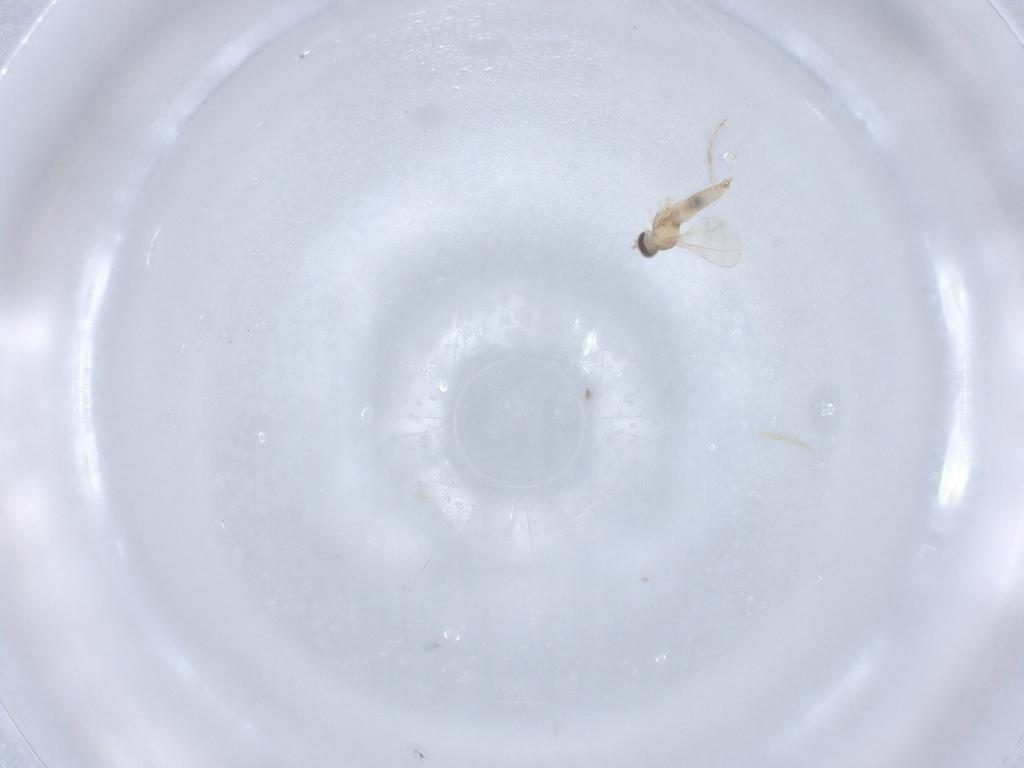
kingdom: Animalia
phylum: Arthropoda
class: Insecta
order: Diptera
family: Cecidomyiidae
